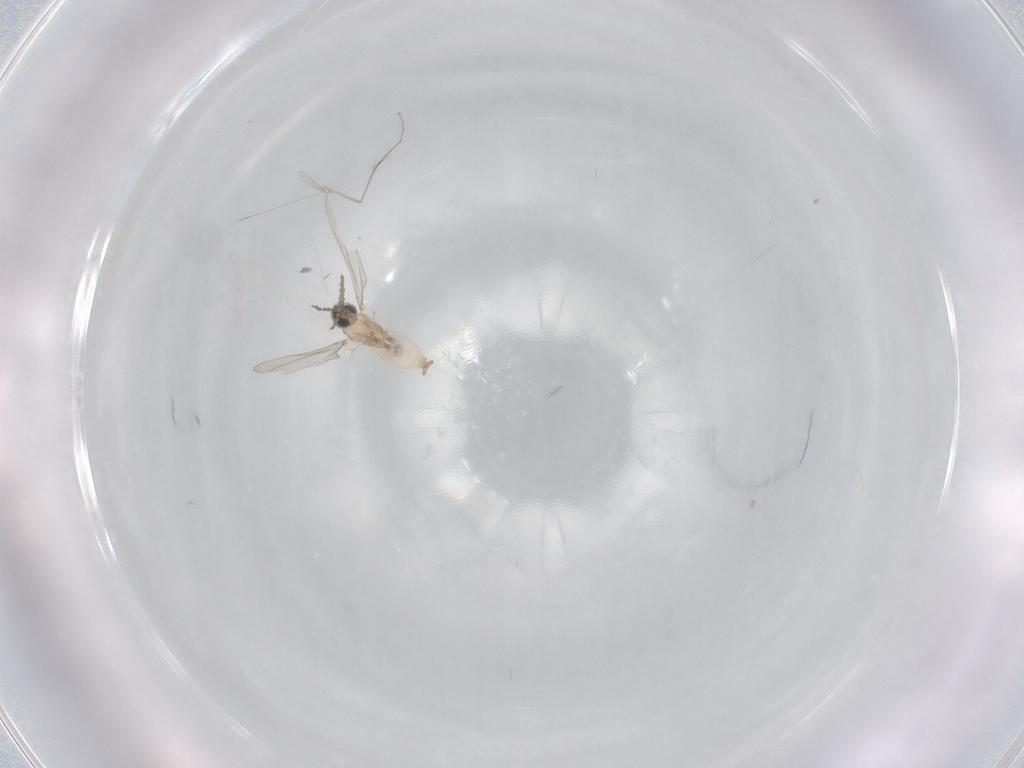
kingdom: Animalia
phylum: Arthropoda
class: Insecta
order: Diptera
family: Cecidomyiidae
